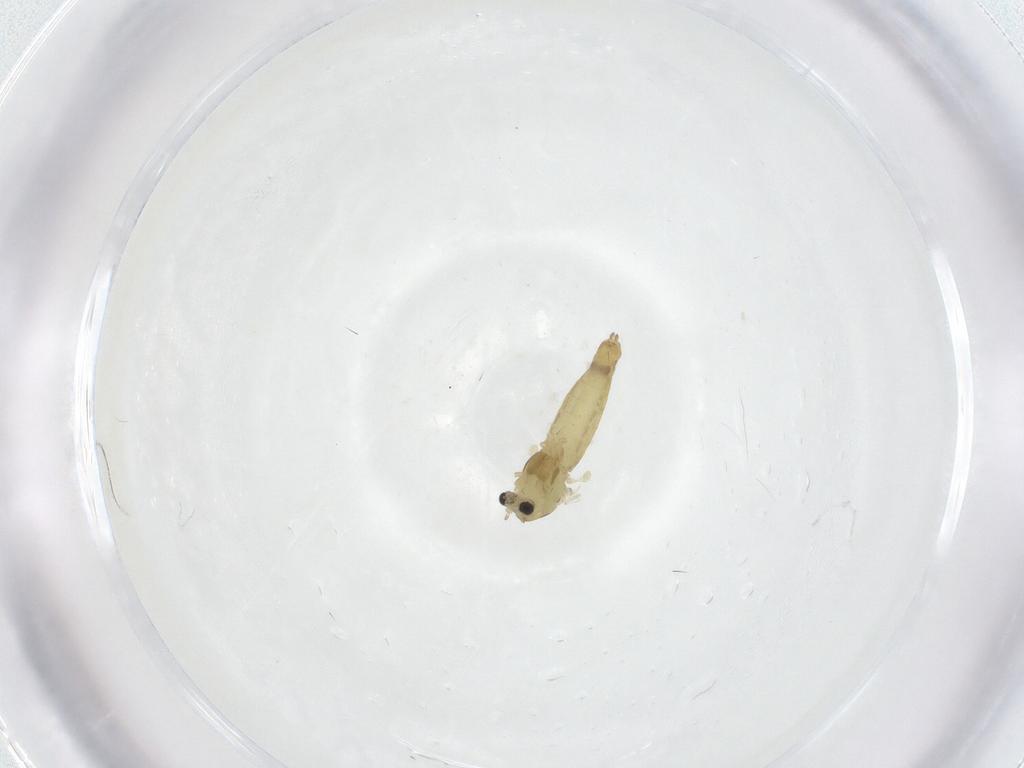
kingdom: Animalia
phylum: Arthropoda
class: Insecta
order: Diptera
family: Chironomidae
